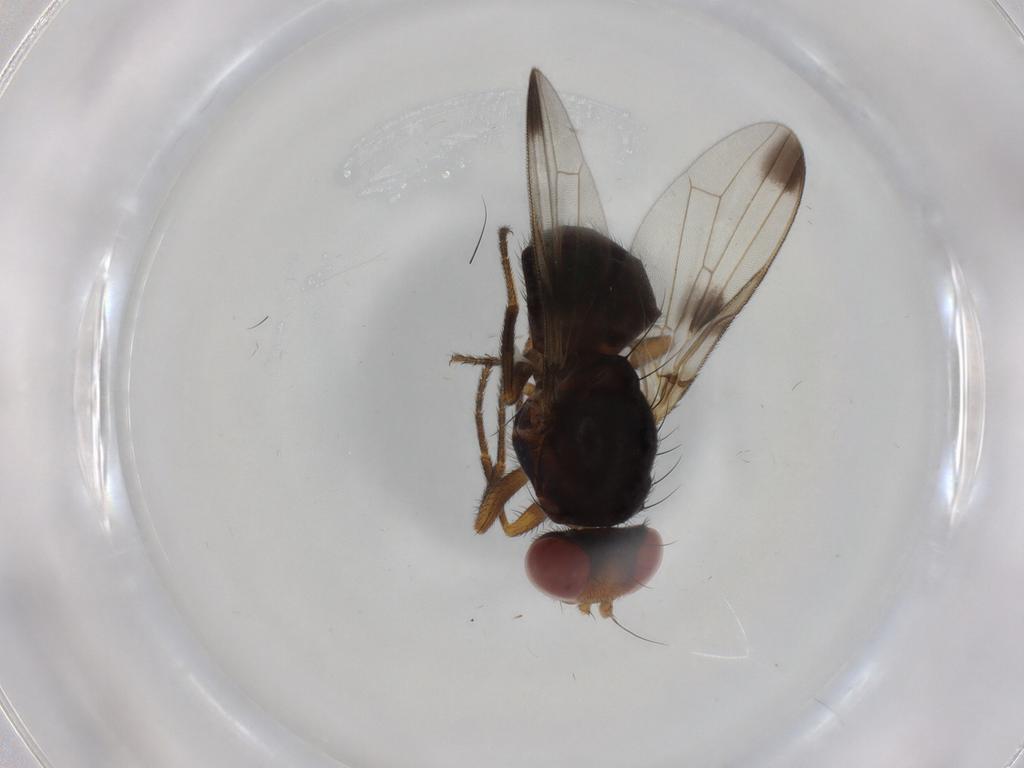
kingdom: Animalia
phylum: Arthropoda
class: Insecta
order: Diptera
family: Ulidiidae
